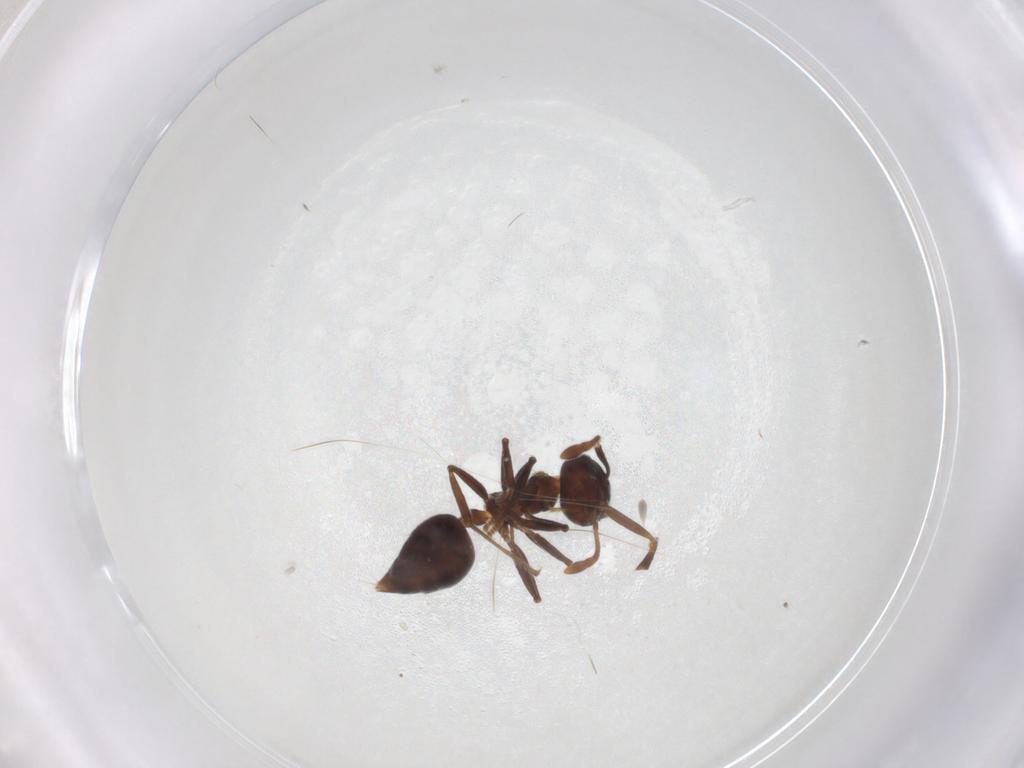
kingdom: Animalia
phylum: Arthropoda
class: Insecta
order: Hymenoptera
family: Formicidae
